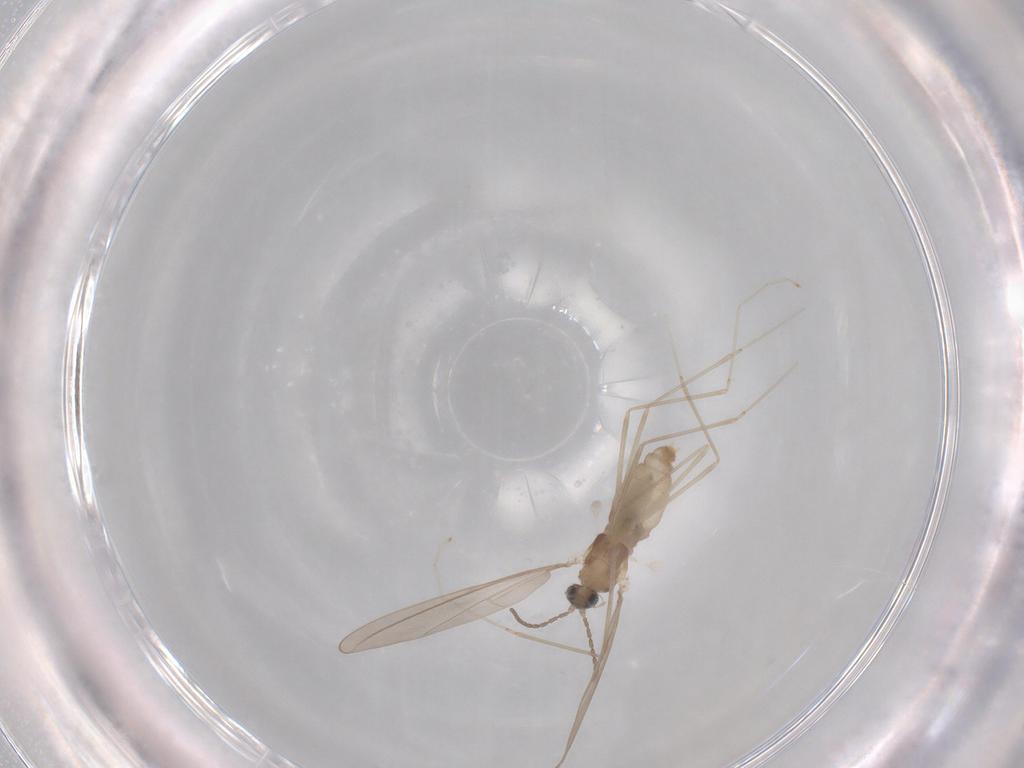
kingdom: Animalia
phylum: Arthropoda
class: Insecta
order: Diptera
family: Cecidomyiidae
